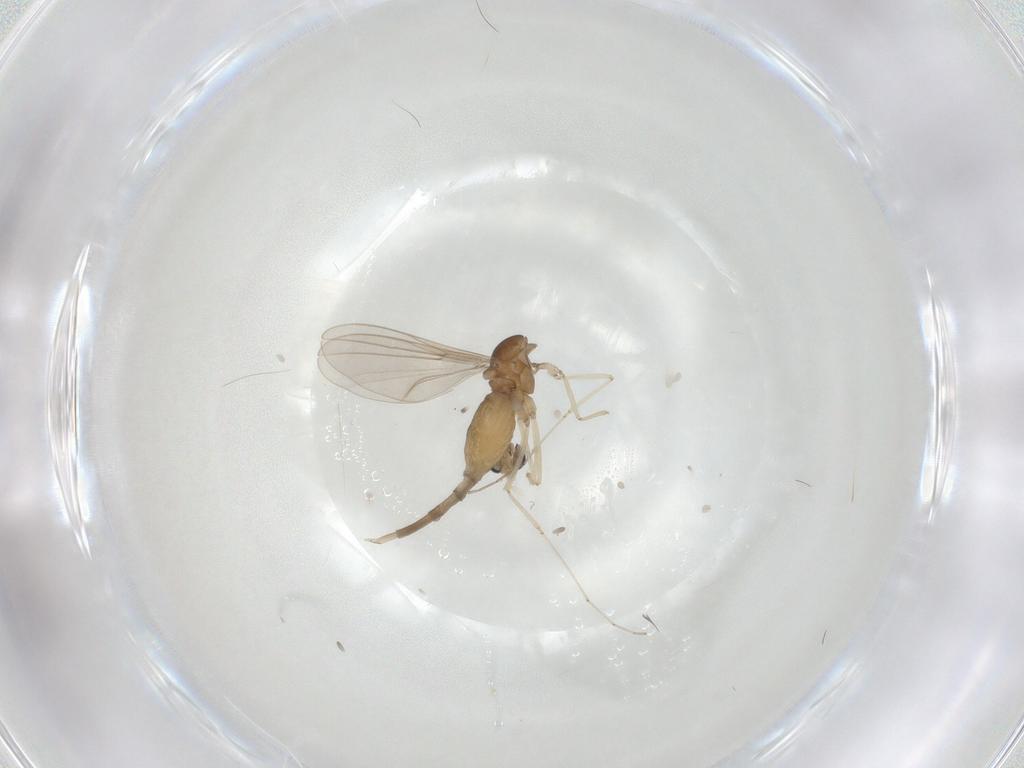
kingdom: Animalia
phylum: Arthropoda
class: Insecta
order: Diptera
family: Cecidomyiidae
